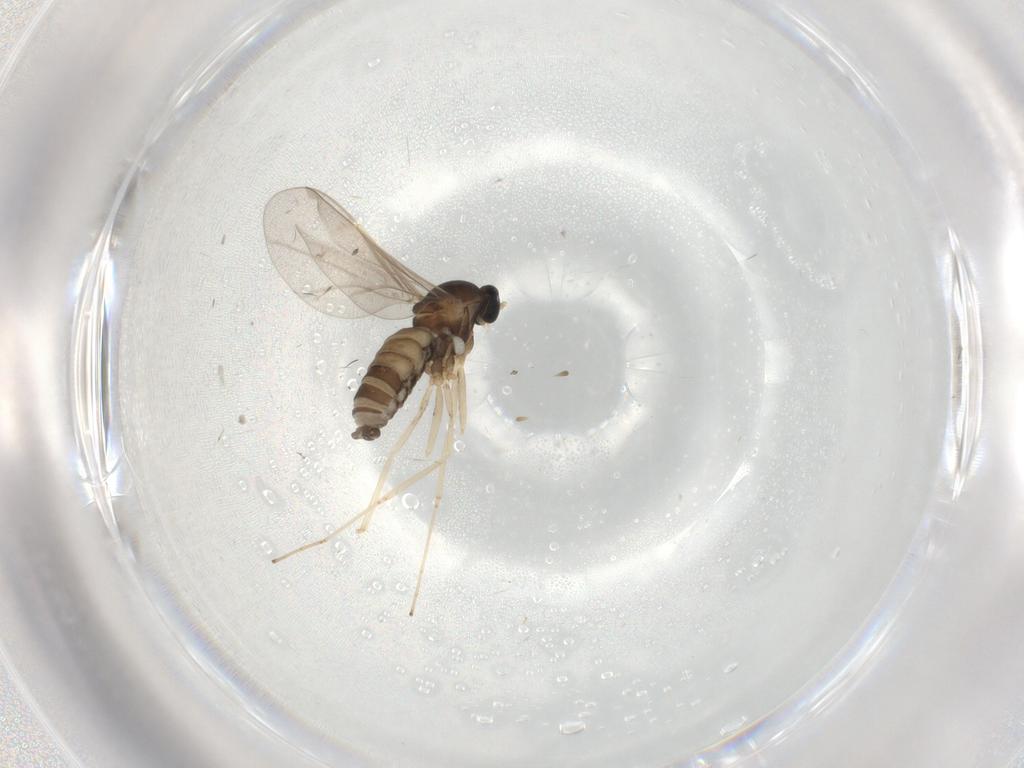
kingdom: Animalia
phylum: Arthropoda
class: Insecta
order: Diptera
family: Cecidomyiidae
